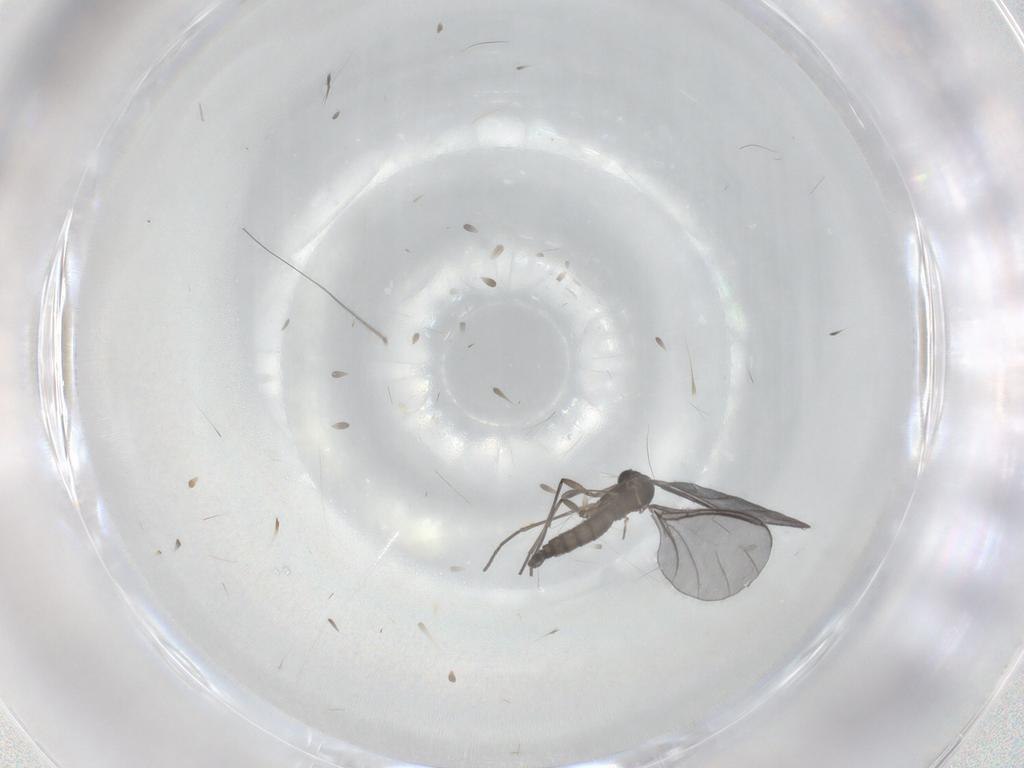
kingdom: Animalia
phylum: Arthropoda
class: Insecta
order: Diptera
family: Sciaridae
